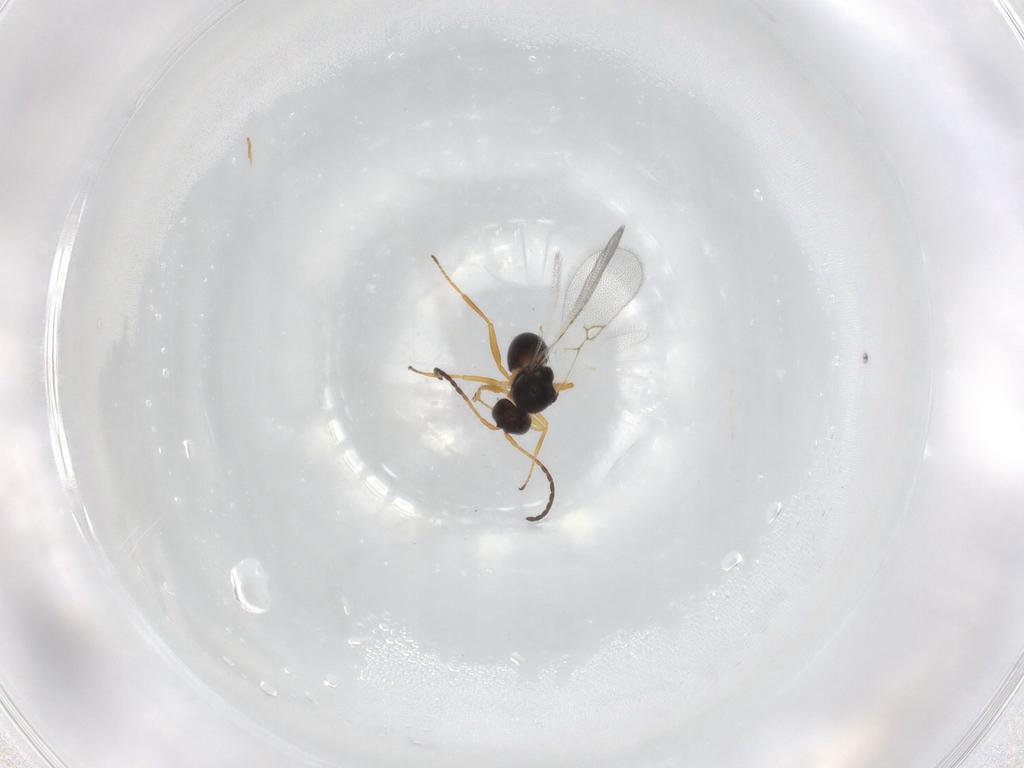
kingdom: Animalia
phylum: Arthropoda
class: Insecta
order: Hymenoptera
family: Figitidae
